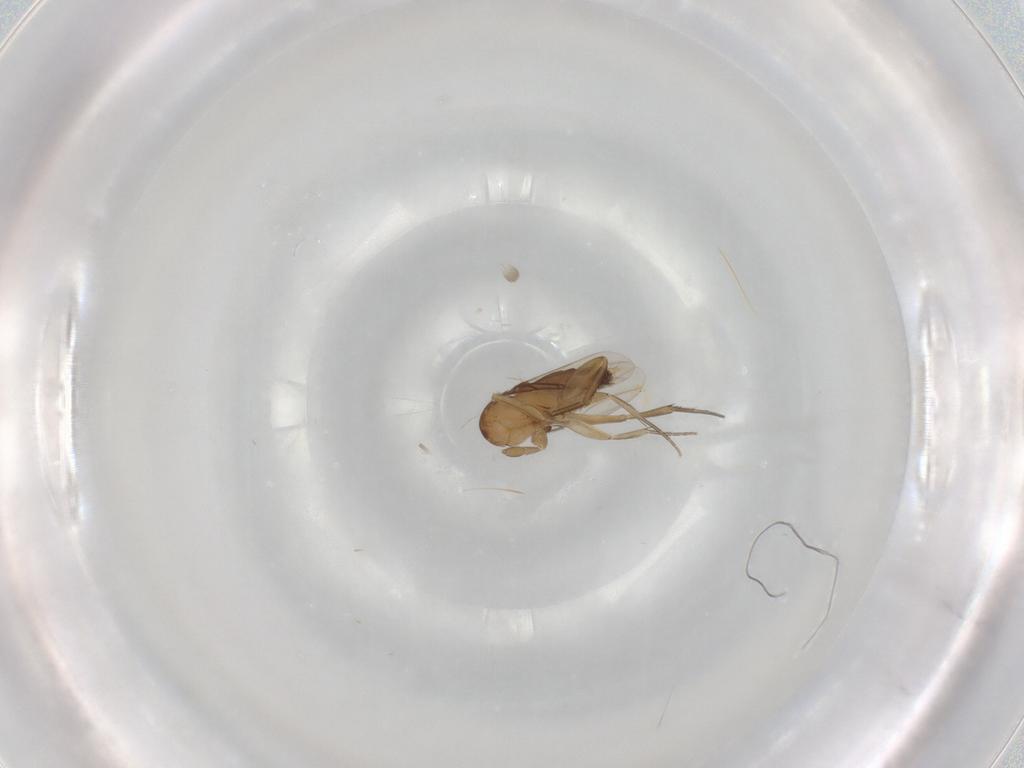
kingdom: Animalia
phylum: Arthropoda
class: Insecta
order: Diptera
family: Phoridae
